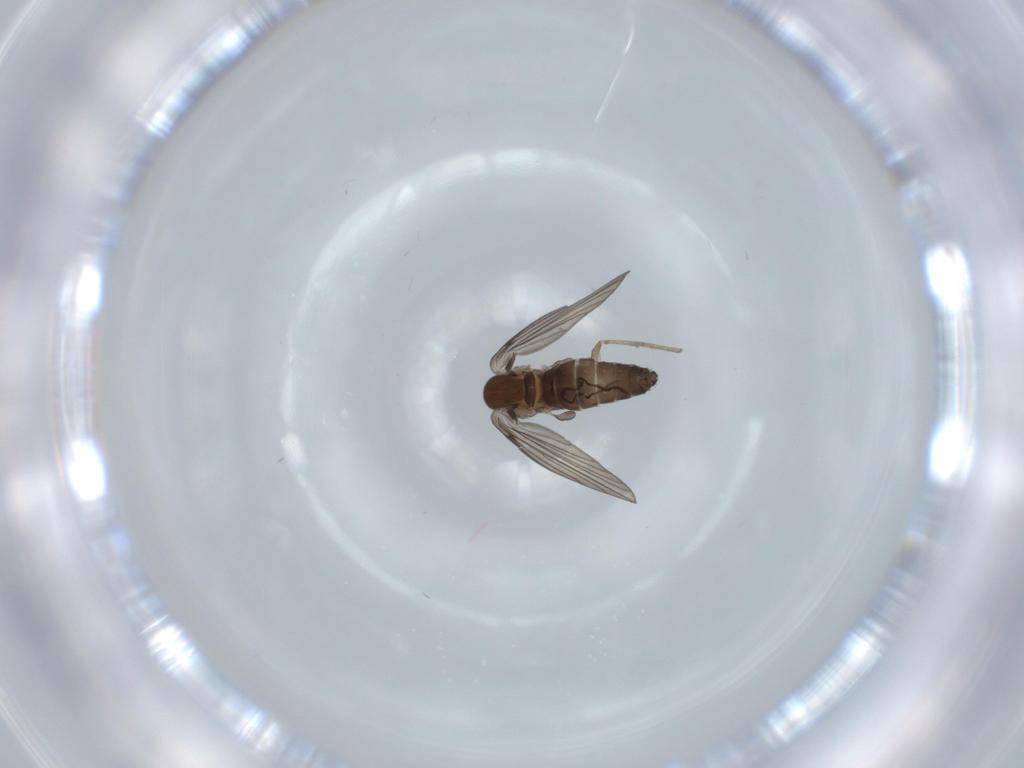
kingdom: Animalia
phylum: Arthropoda
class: Insecta
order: Diptera
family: Psychodidae
